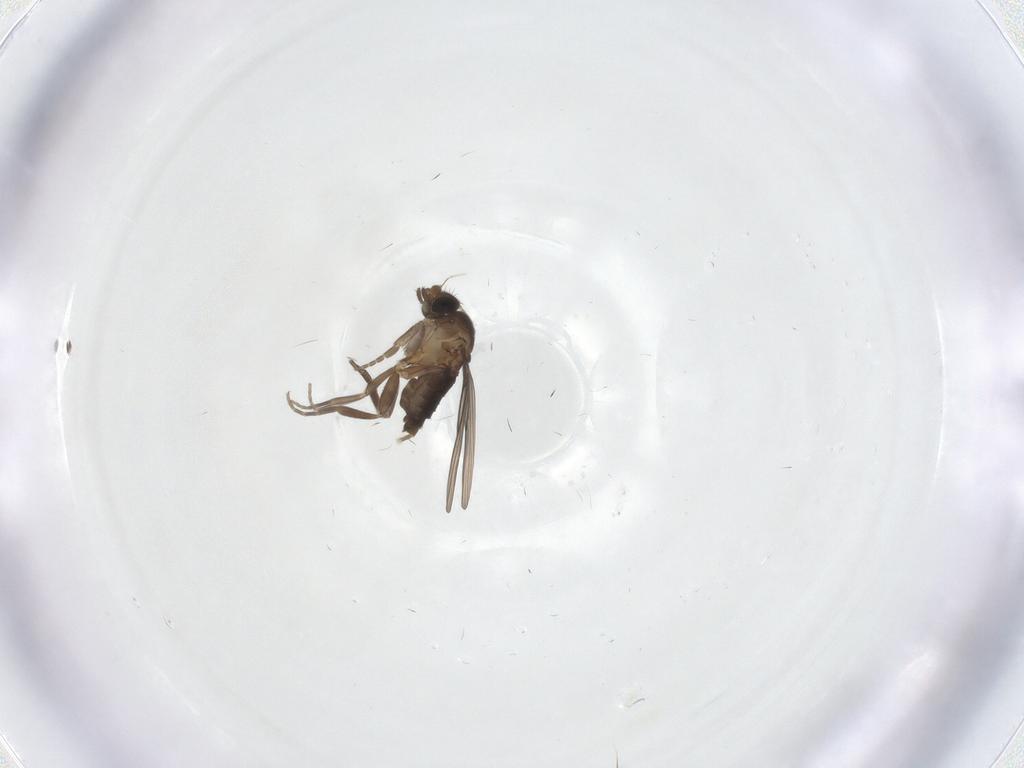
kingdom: Animalia
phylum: Arthropoda
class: Insecta
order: Diptera
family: Phoridae
